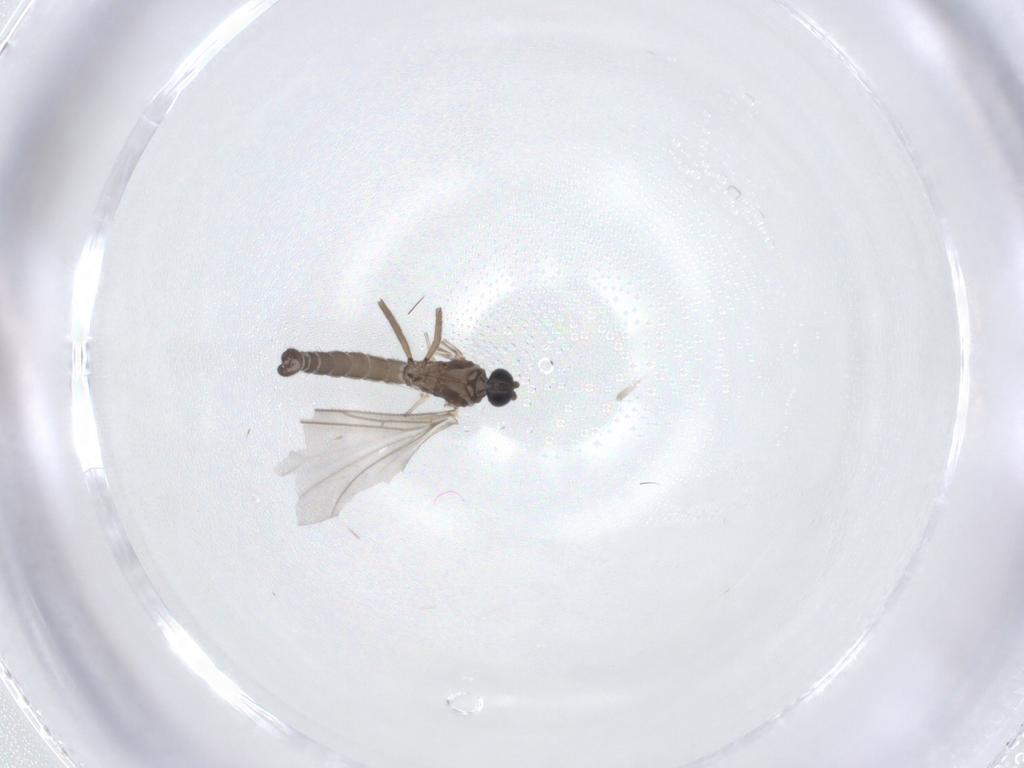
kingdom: Animalia
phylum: Arthropoda
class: Insecta
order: Diptera
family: Sciaridae
